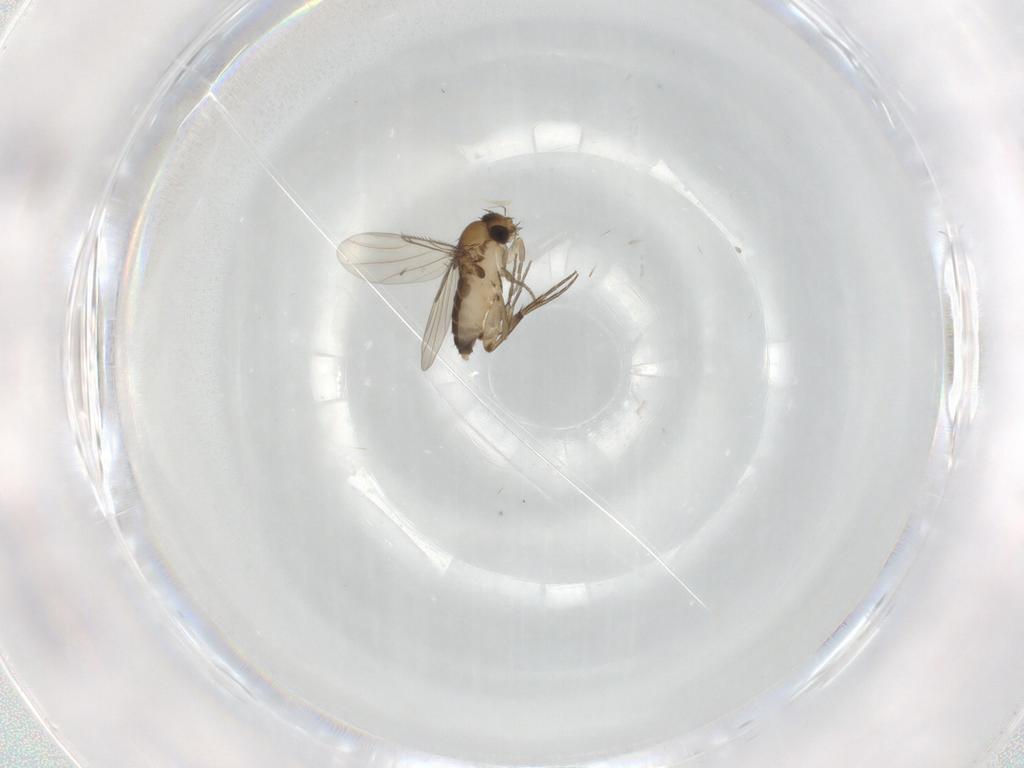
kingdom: Animalia
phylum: Arthropoda
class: Insecta
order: Diptera
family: Phoridae
